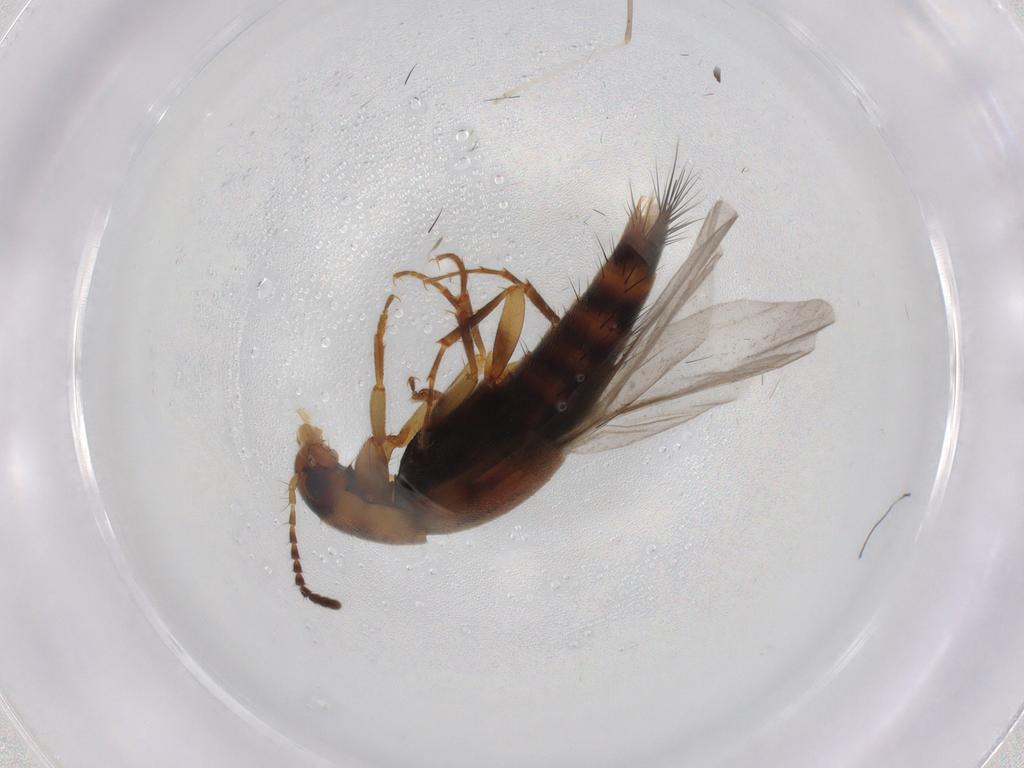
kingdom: Animalia
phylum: Arthropoda
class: Insecta
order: Coleoptera
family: Staphylinidae
